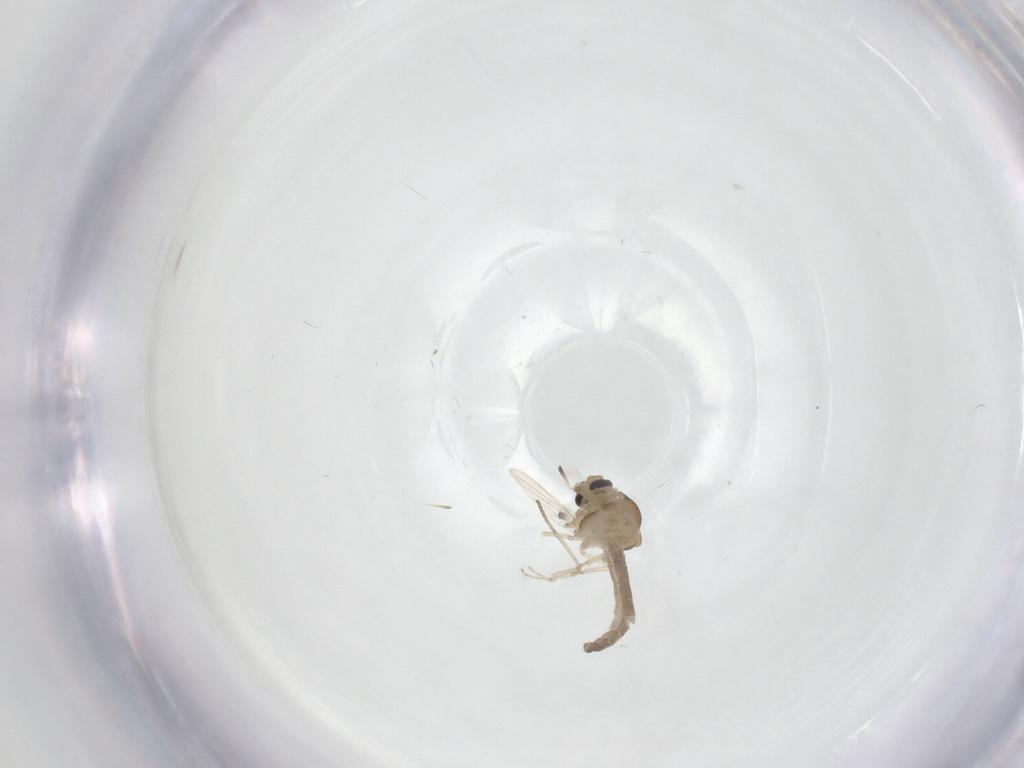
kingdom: Animalia
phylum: Arthropoda
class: Insecta
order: Diptera
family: Ceratopogonidae
